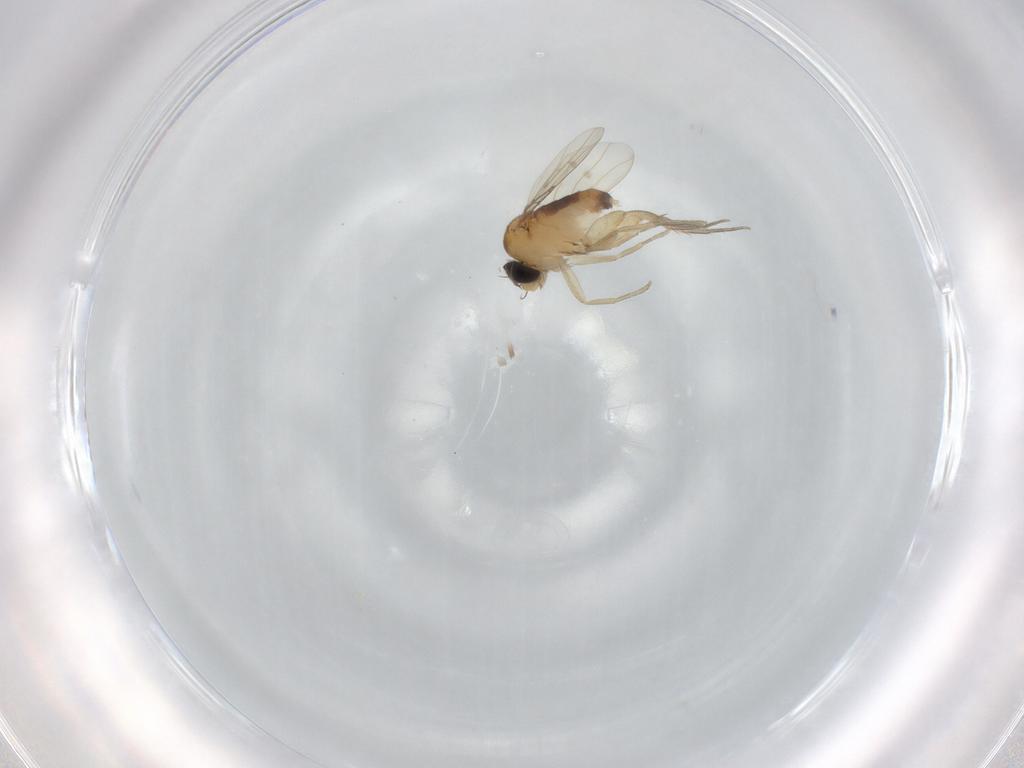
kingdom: Animalia
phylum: Arthropoda
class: Insecta
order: Diptera
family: Phoridae
